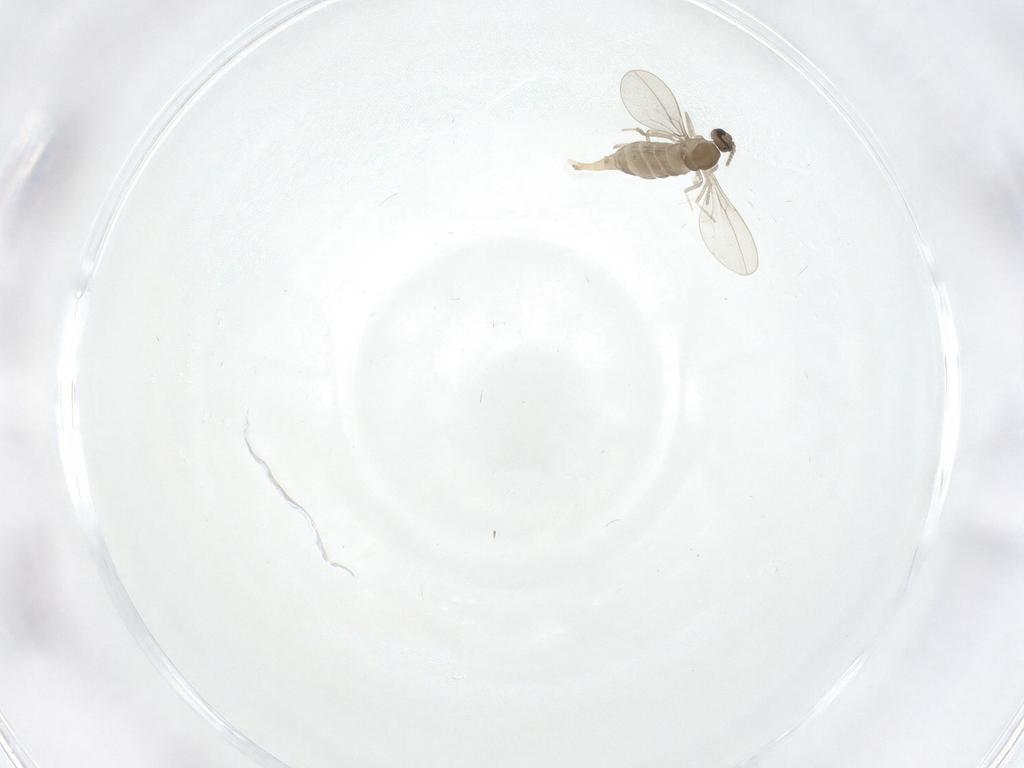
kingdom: Animalia
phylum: Arthropoda
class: Insecta
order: Diptera
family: Cecidomyiidae
